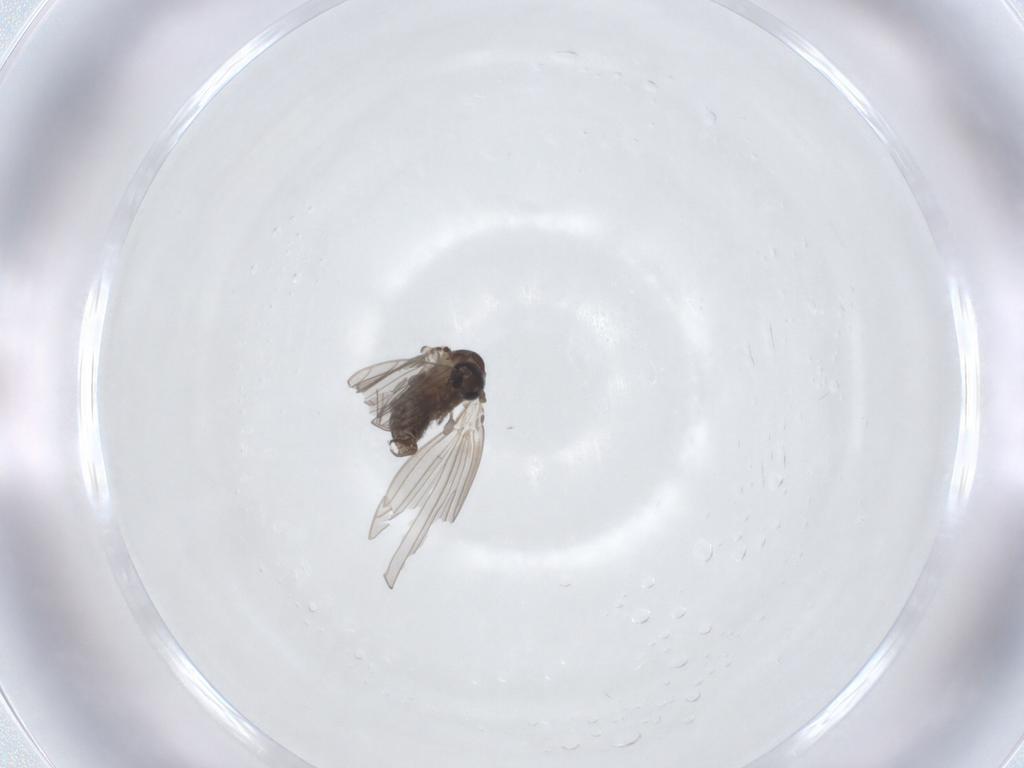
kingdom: Animalia
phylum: Arthropoda
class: Insecta
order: Diptera
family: Psychodidae
